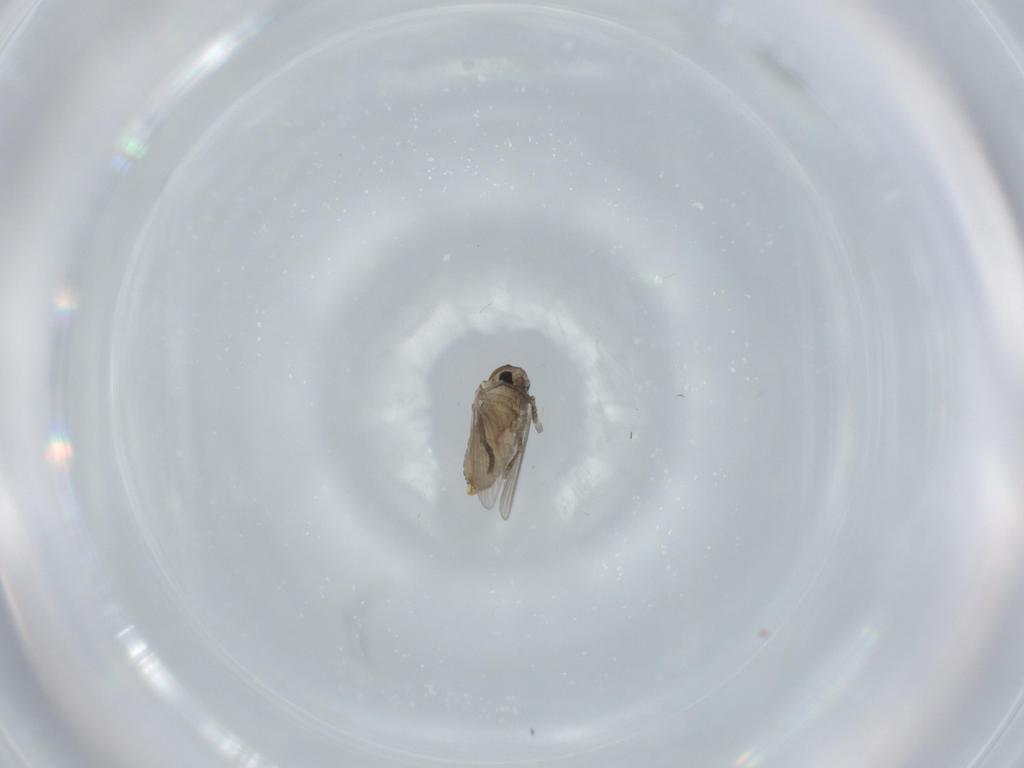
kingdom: Animalia
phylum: Arthropoda
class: Insecta
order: Diptera
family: Psychodidae
